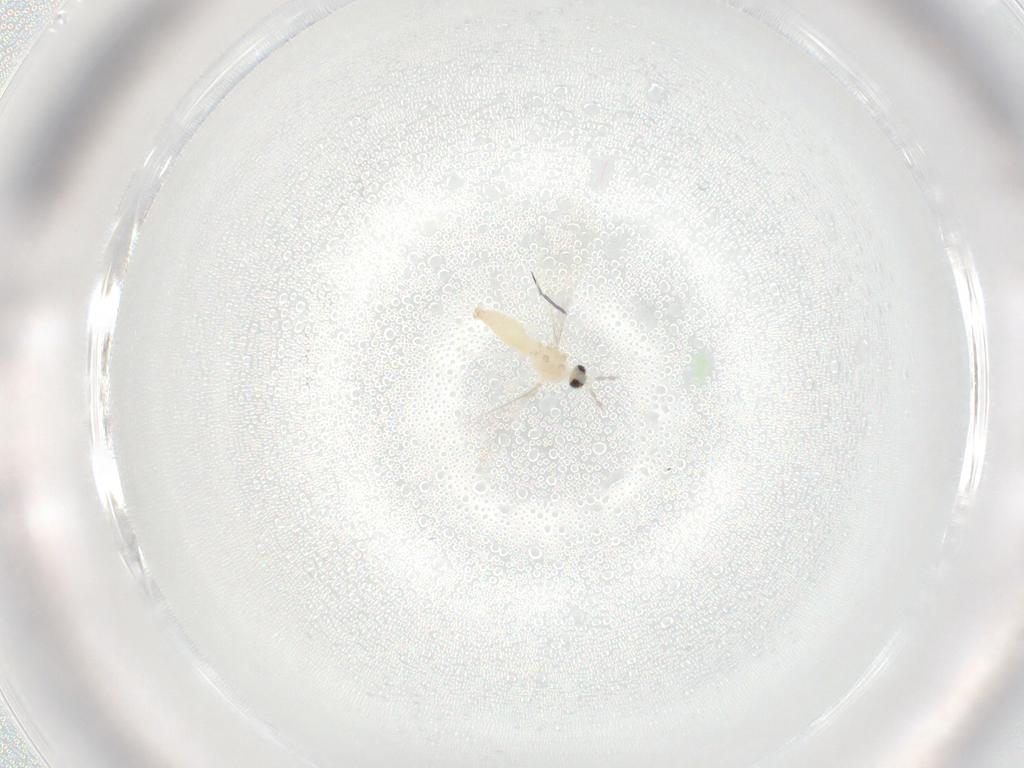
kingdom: Animalia
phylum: Arthropoda
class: Insecta
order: Diptera
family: Cecidomyiidae
